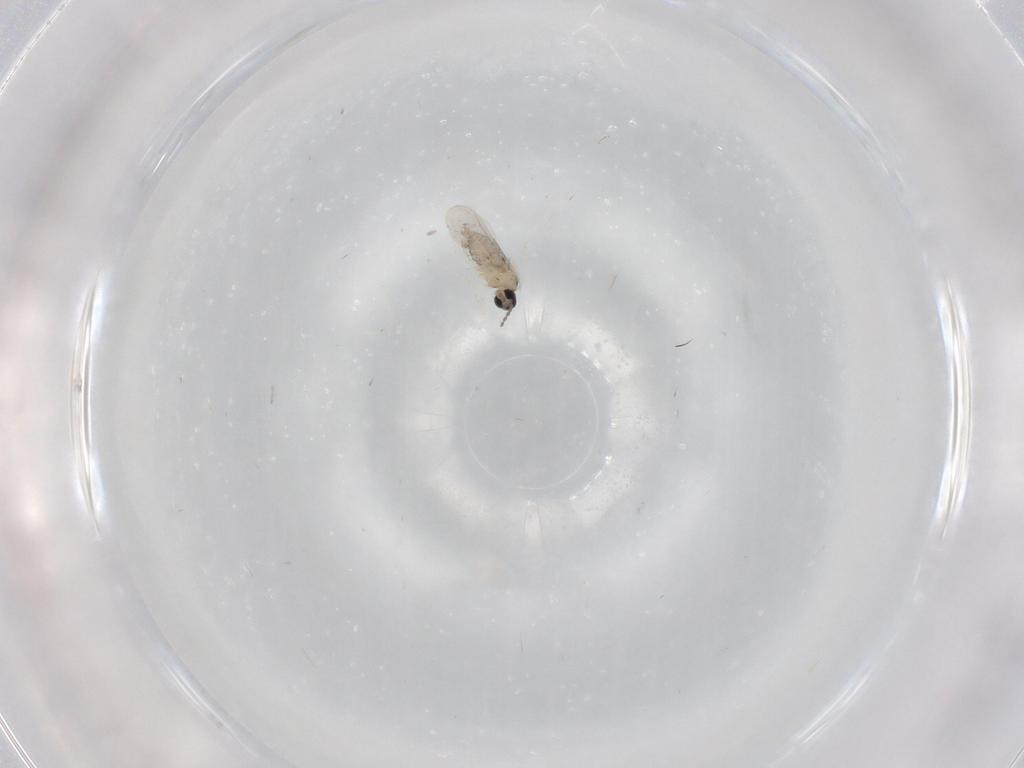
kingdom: Animalia
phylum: Arthropoda
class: Insecta
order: Diptera
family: Cecidomyiidae
